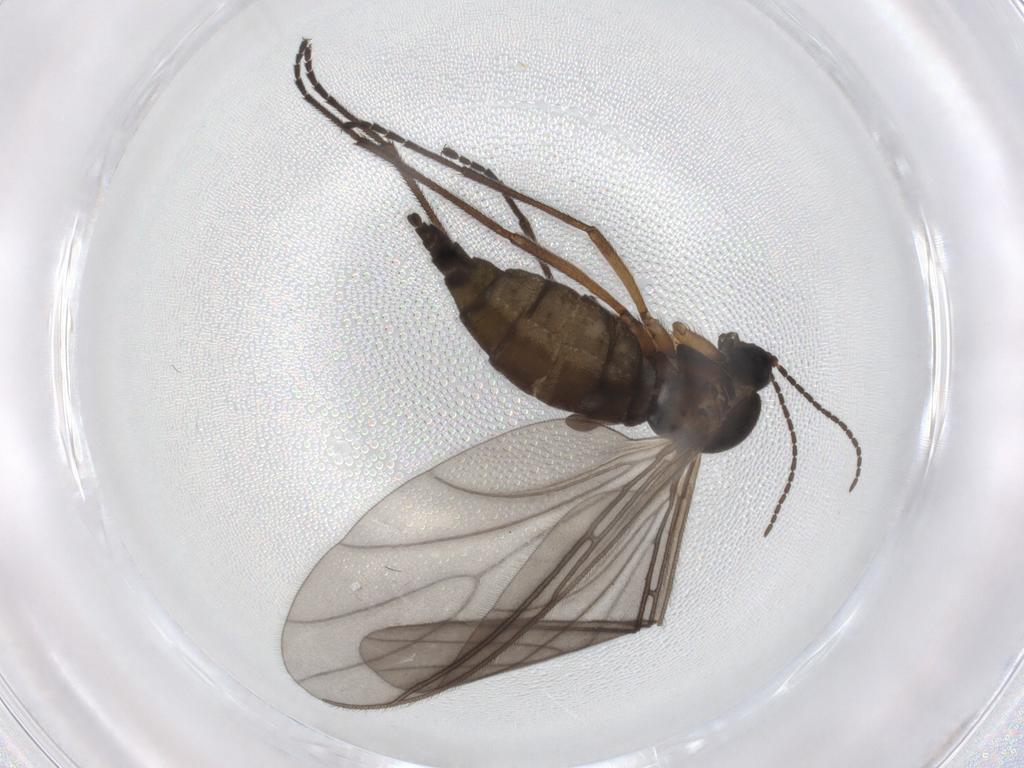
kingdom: Animalia
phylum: Arthropoda
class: Insecta
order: Diptera
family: Sciaridae
